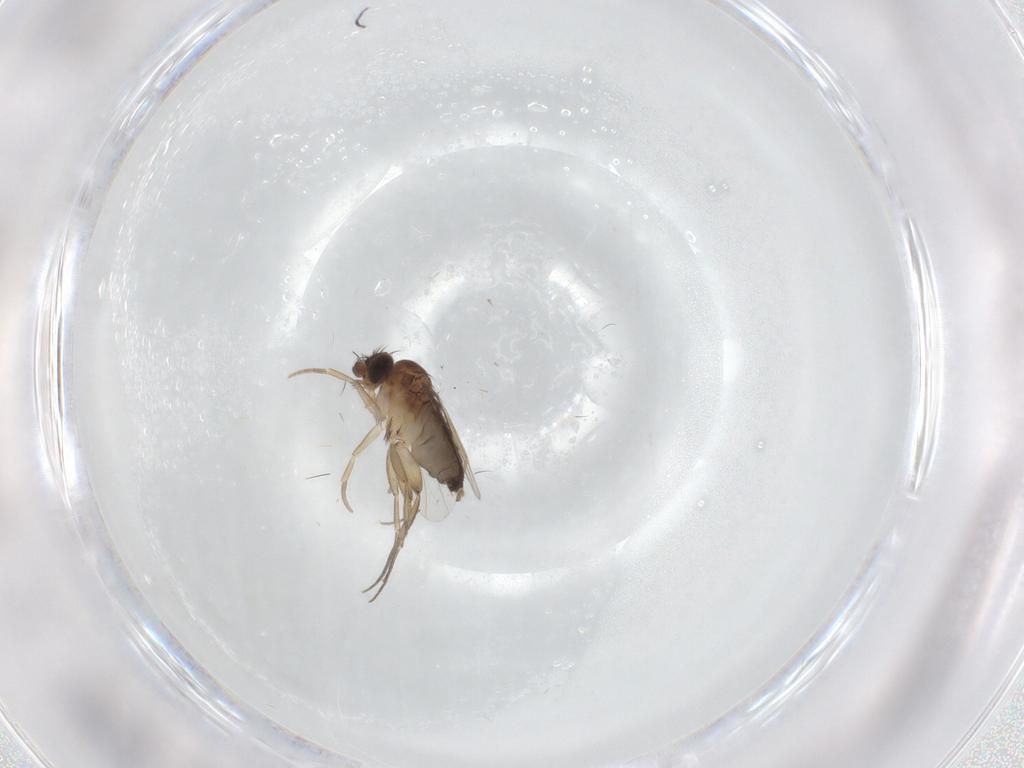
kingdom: Animalia
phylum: Arthropoda
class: Insecta
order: Diptera
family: Phoridae
